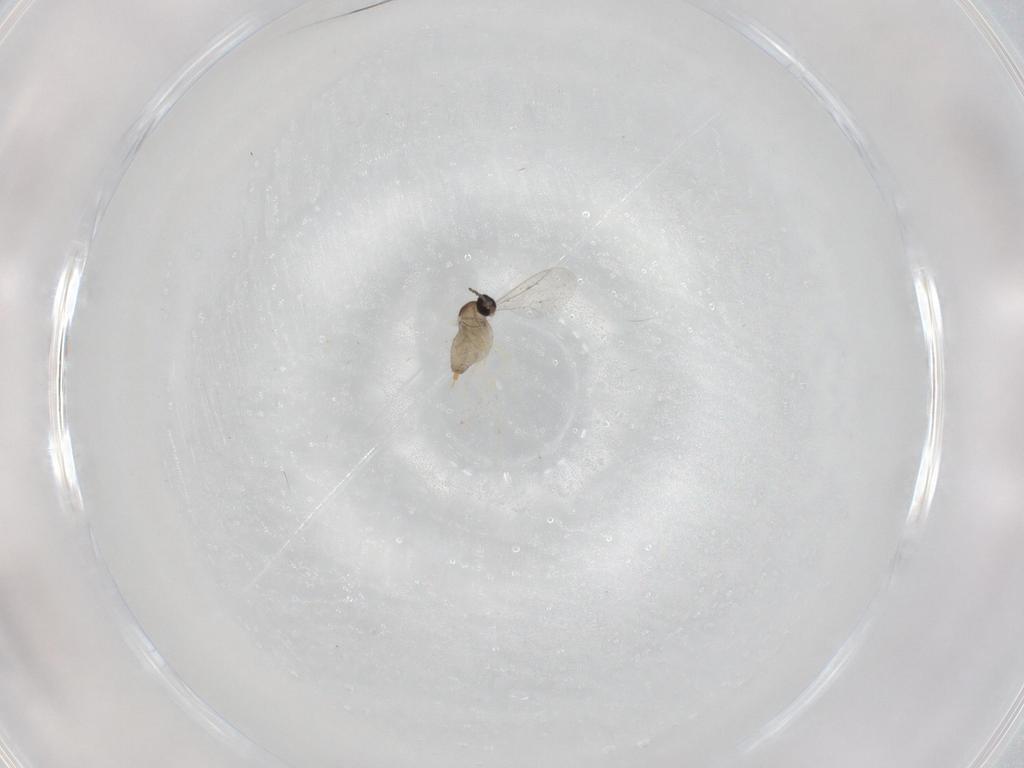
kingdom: Animalia
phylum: Arthropoda
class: Insecta
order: Diptera
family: Cecidomyiidae
